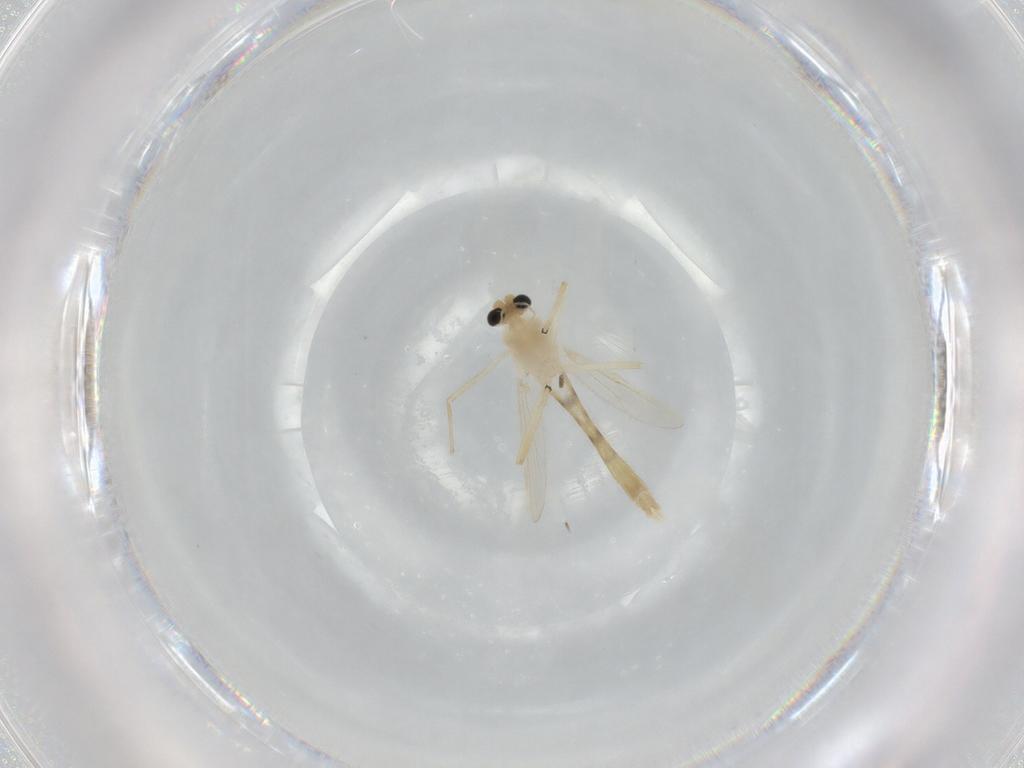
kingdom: Animalia
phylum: Arthropoda
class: Insecta
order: Diptera
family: Chironomidae
